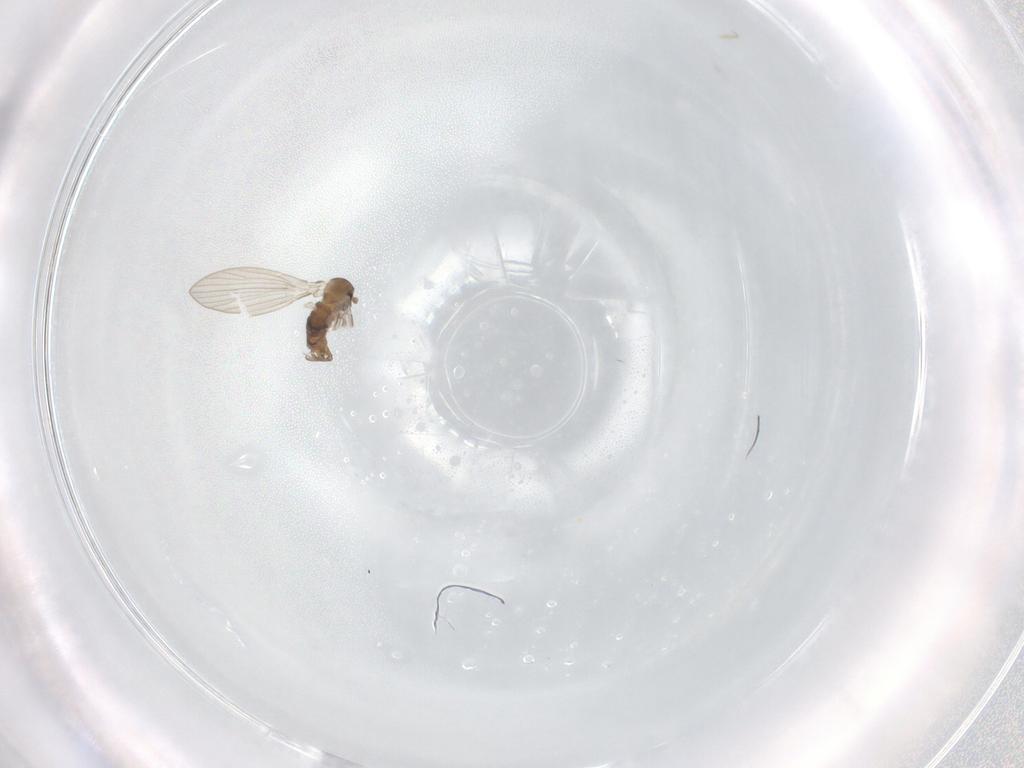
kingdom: Animalia
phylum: Arthropoda
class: Insecta
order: Diptera
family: Psychodidae
